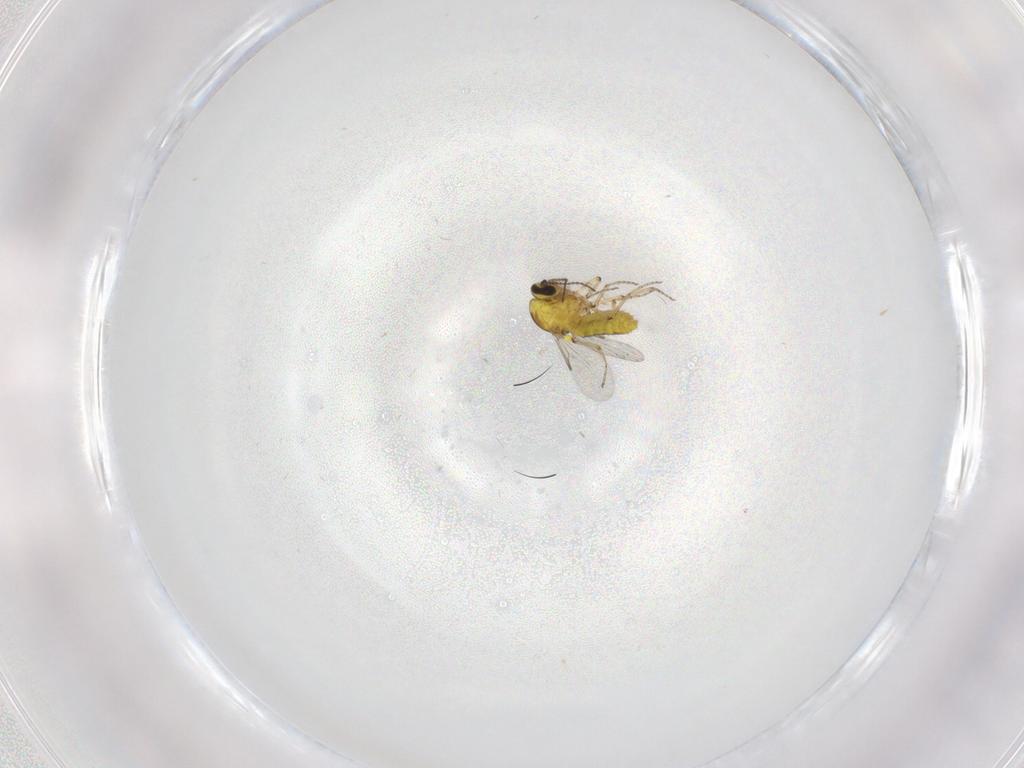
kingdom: Animalia
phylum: Arthropoda
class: Insecta
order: Diptera
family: Ceratopogonidae
